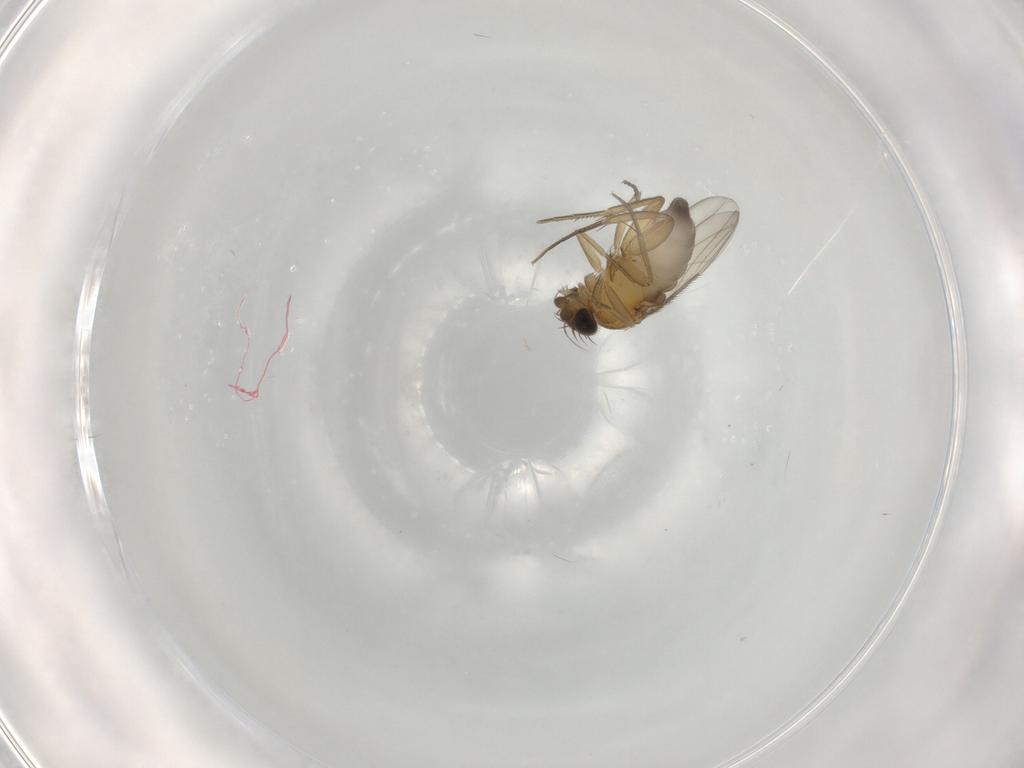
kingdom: Animalia
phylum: Arthropoda
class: Insecta
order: Diptera
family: Phoridae
